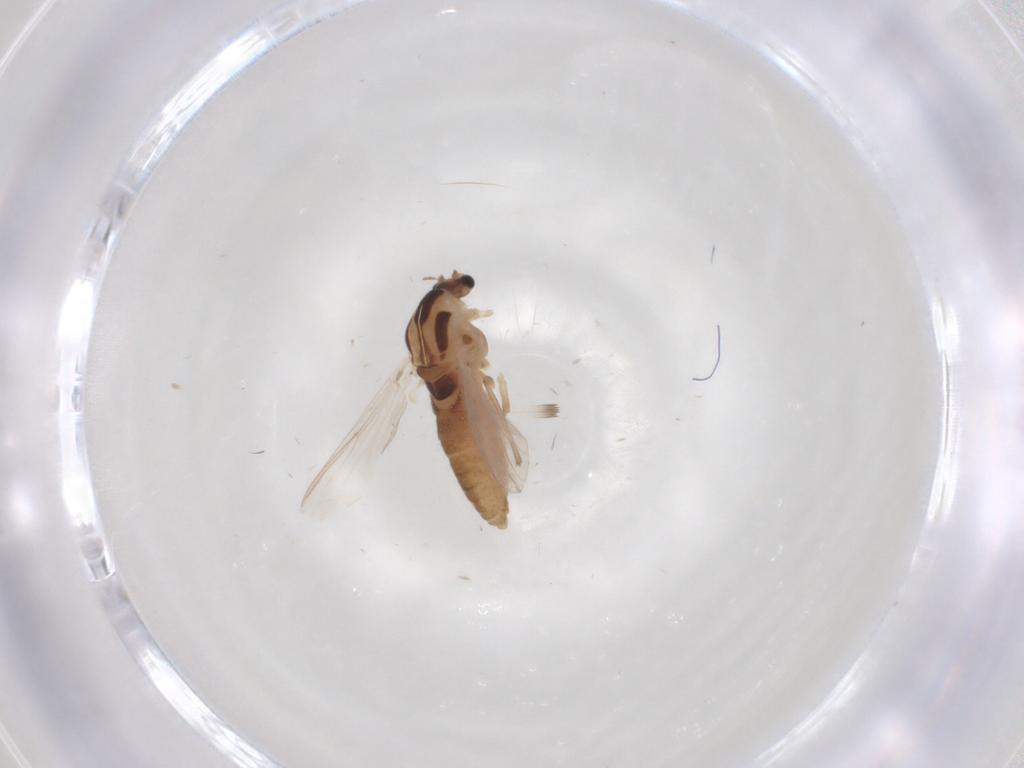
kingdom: Animalia
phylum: Arthropoda
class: Insecta
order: Diptera
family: Chironomidae
